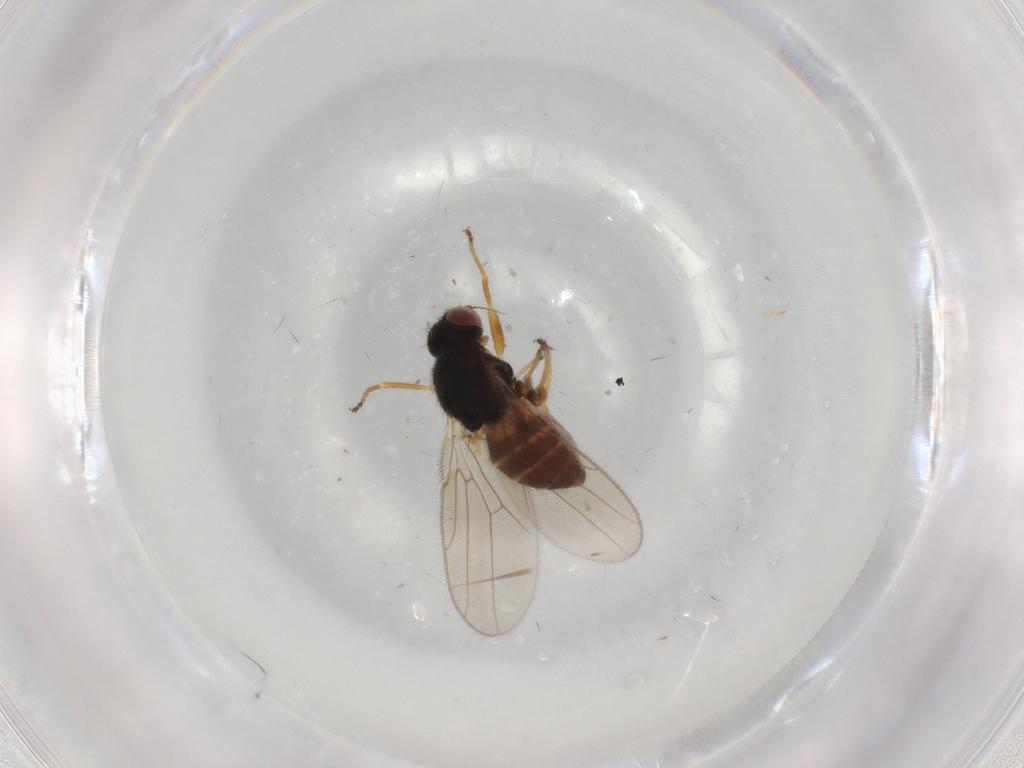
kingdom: Animalia
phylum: Arthropoda
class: Insecta
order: Diptera
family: Chloropidae
